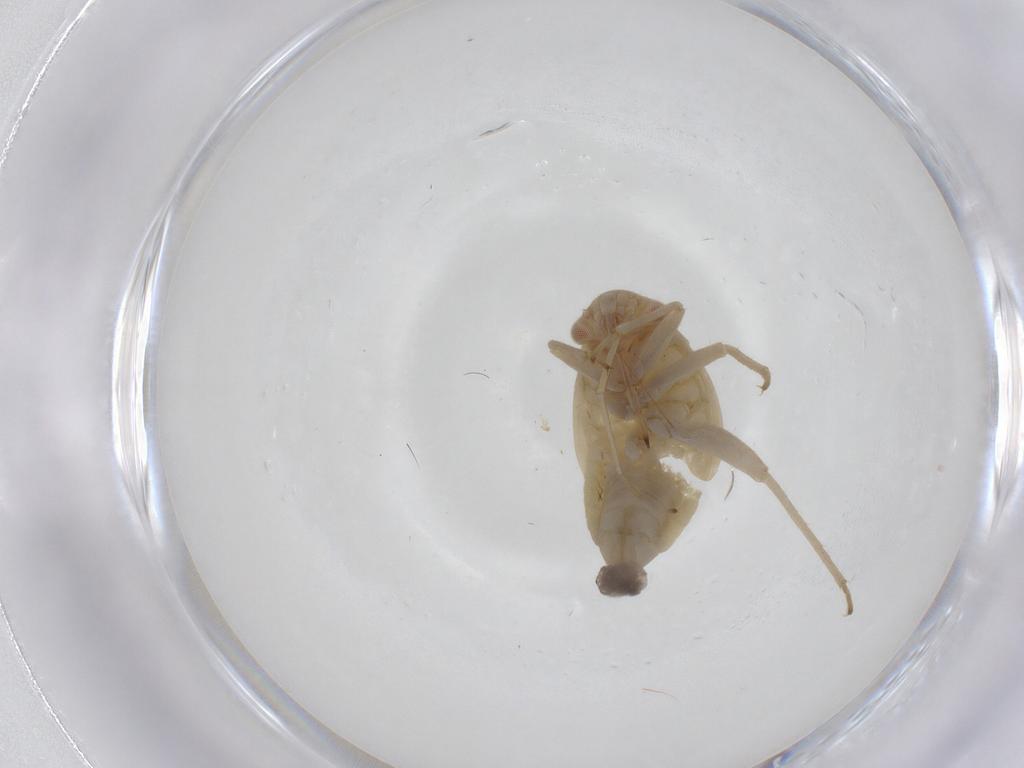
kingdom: Animalia
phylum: Arthropoda
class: Insecta
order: Hemiptera
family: Miridae
